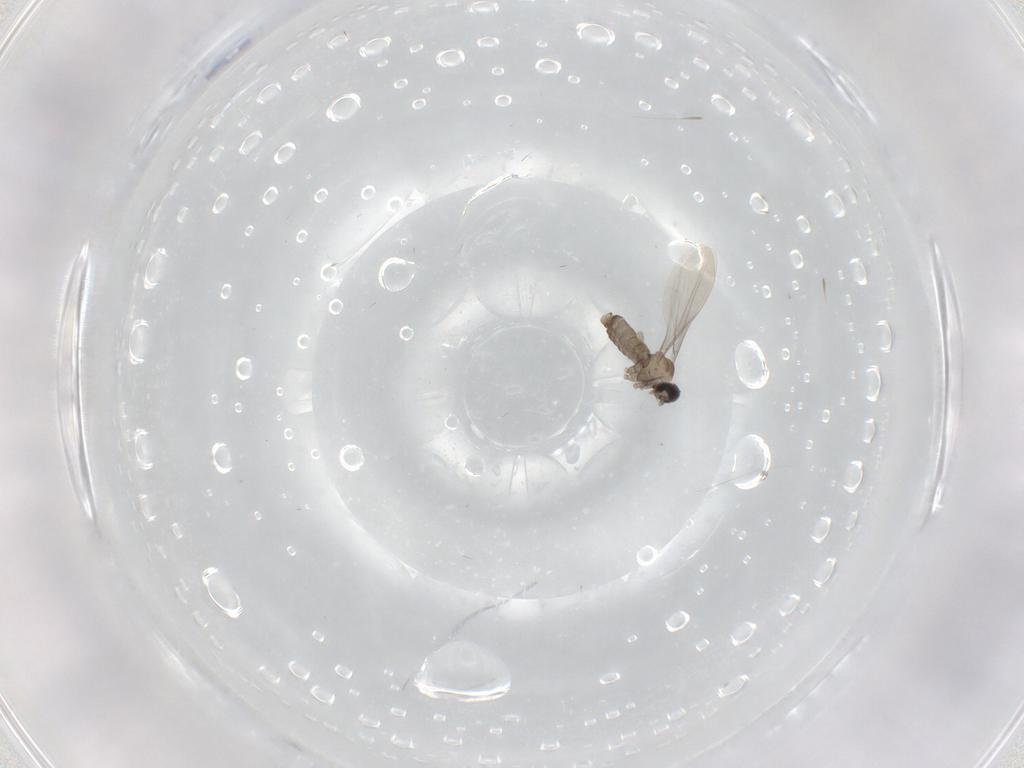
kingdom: Animalia
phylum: Arthropoda
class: Insecta
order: Diptera
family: Cecidomyiidae
